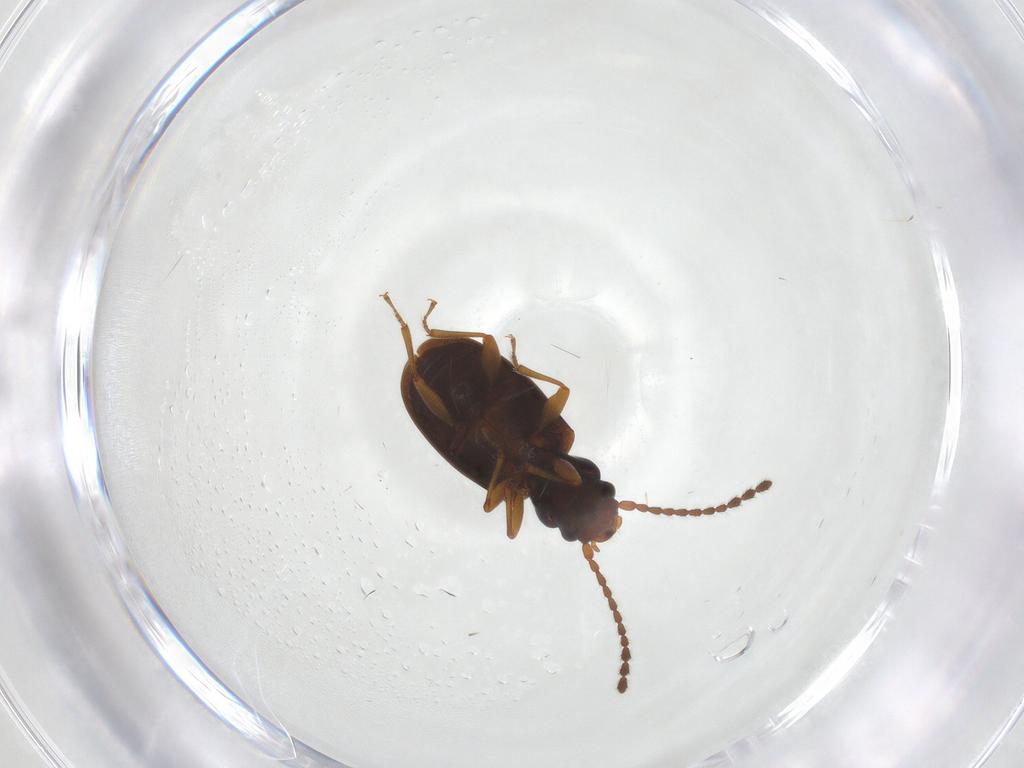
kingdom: Animalia
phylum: Arthropoda
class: Insecta
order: Coleoptera
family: Laemophloeidae
